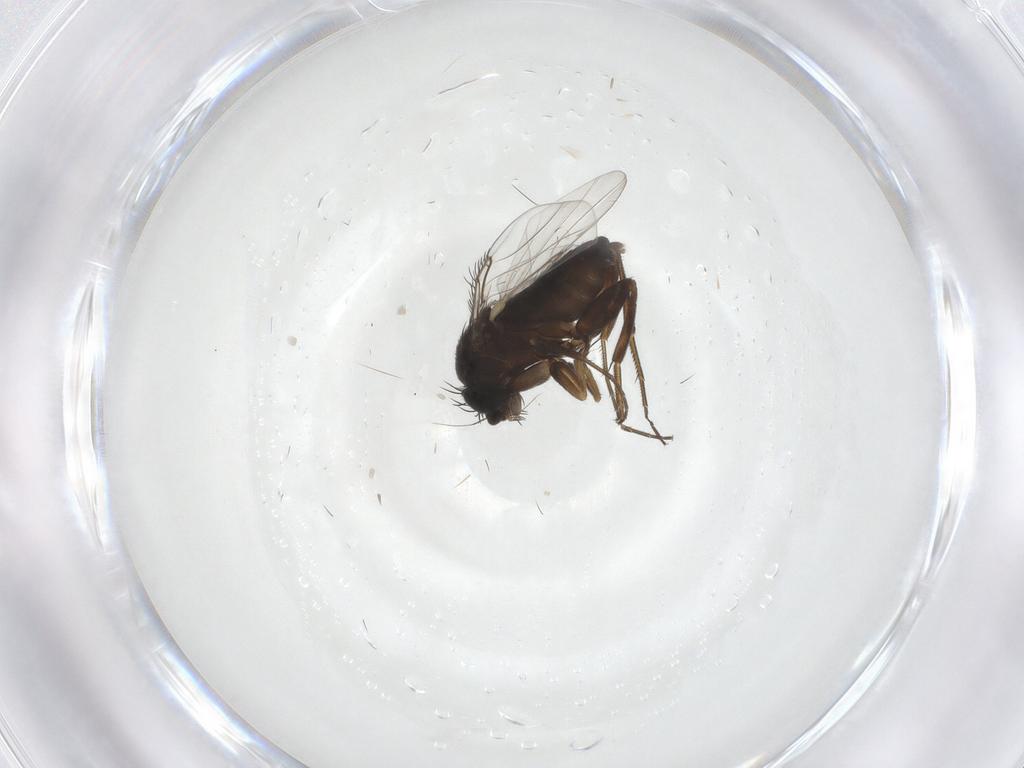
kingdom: Animalia
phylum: Arthropoda
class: Insecta
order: Diptera
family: Phoridae
